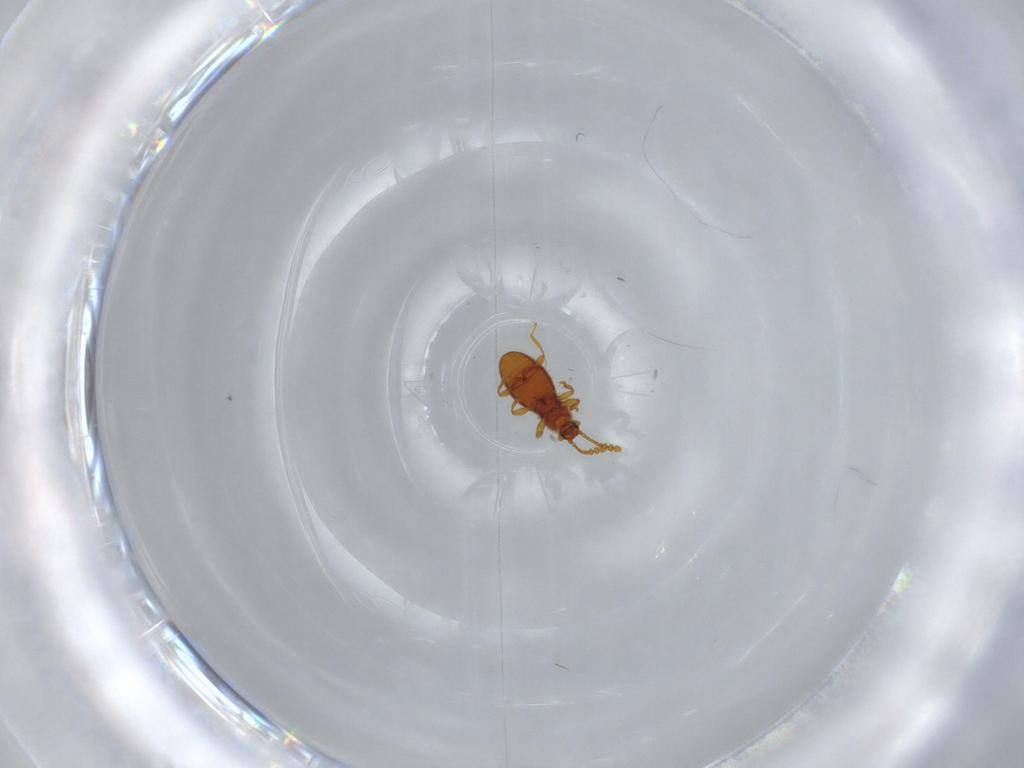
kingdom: Animalia
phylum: Arthropoda
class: Insecta
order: Coleoptera
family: Staphylinidae
